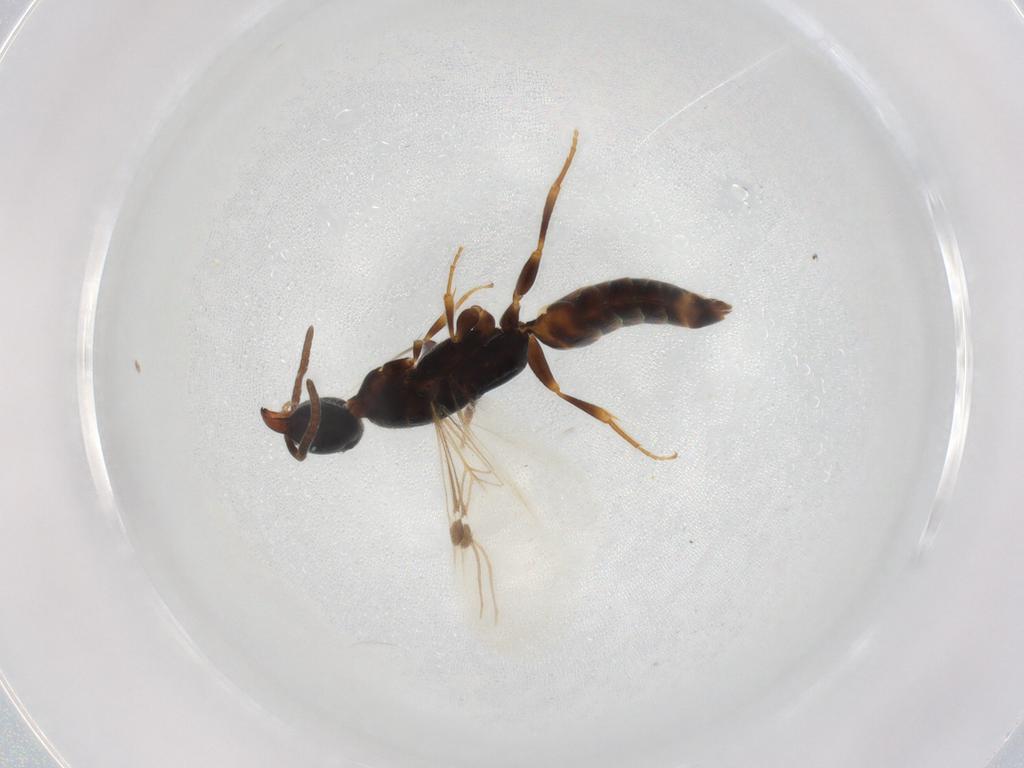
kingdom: Animalia
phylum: Arthropoda
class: Insecta
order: Hymenoptera
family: Bethylidae
